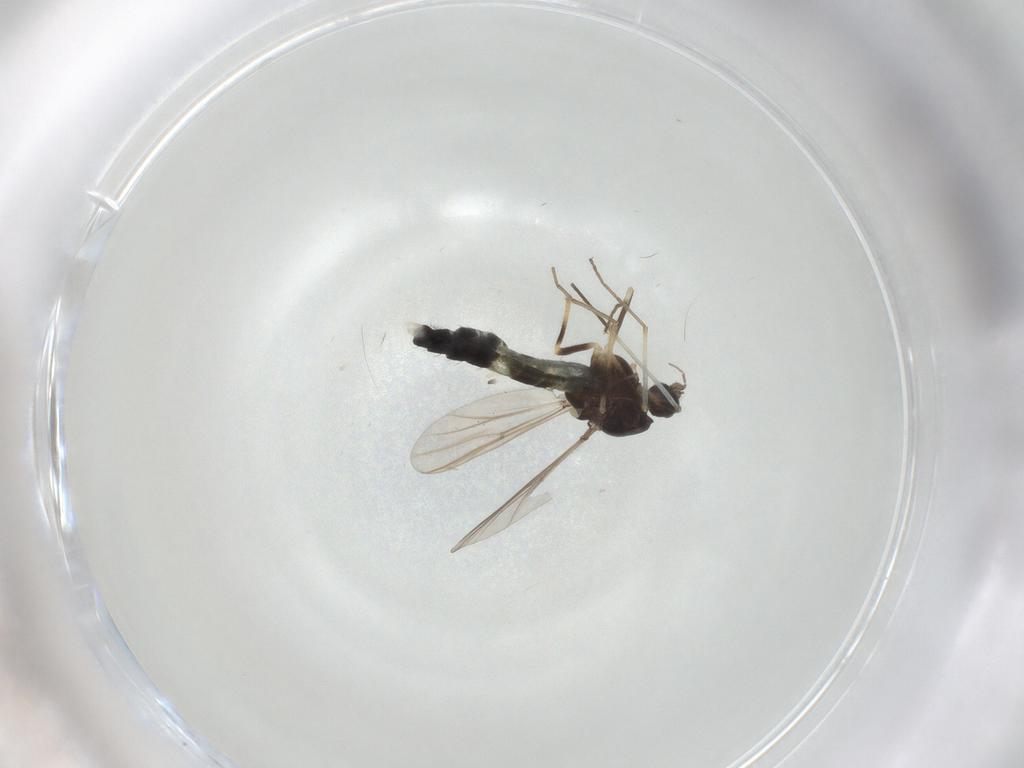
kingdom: Animalia
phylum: Arthropoda
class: Insecta
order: Diptera
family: Chironomidae
